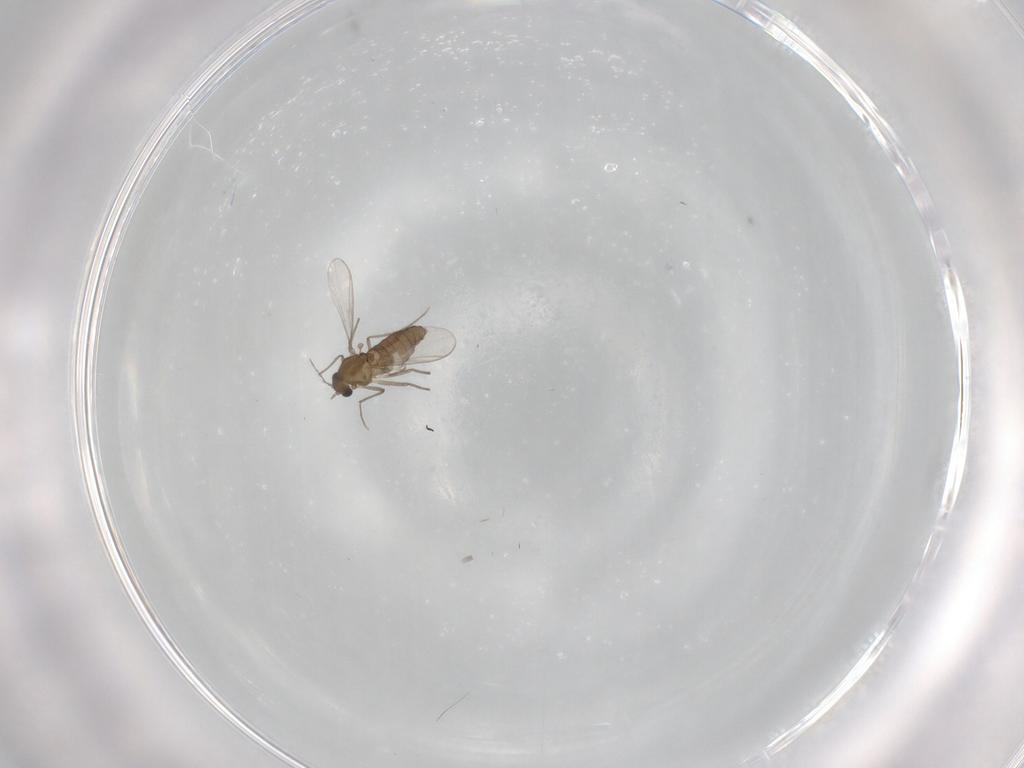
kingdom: Animalia
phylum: Arthropoda
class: Insecta
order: Diptera
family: Chironomidae
